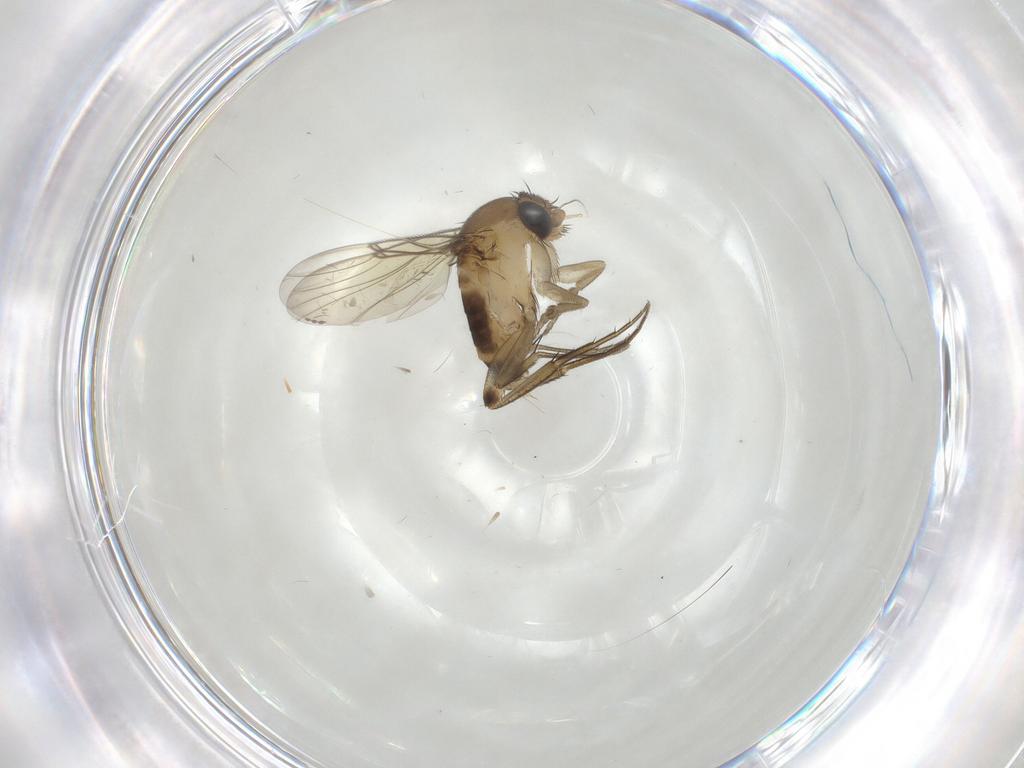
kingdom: Animalia
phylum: Arthropoda
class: Insecta
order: Diptera
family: Phoridae
